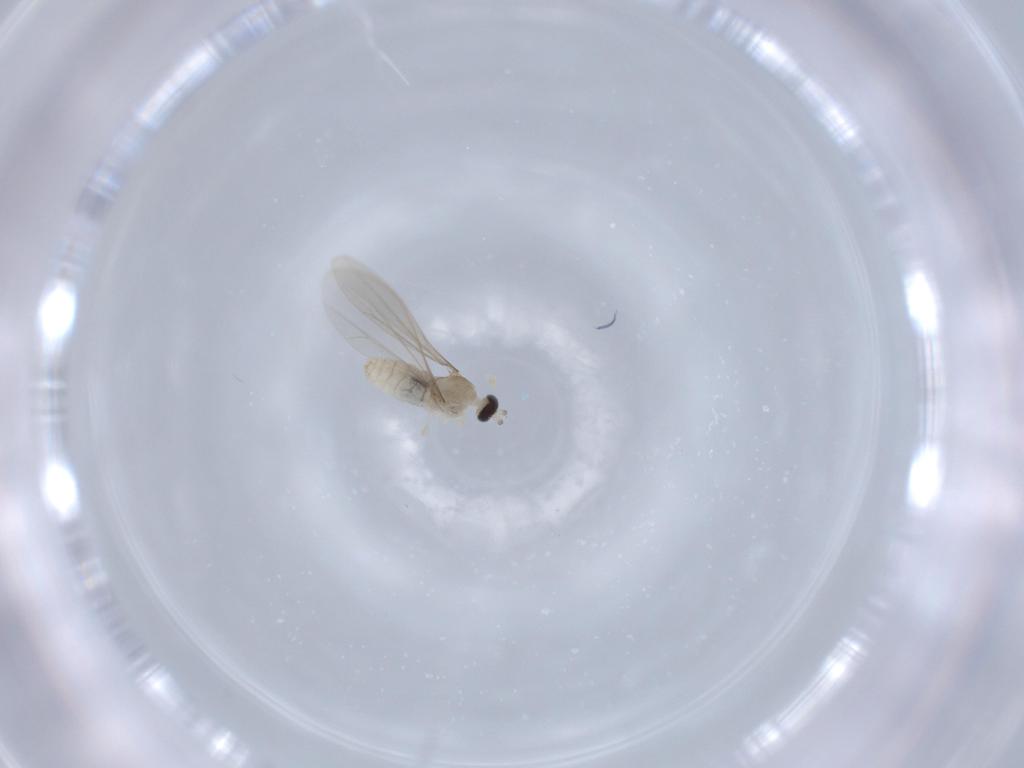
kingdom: Animalia
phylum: Arthropoda
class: Insecta
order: Diptera
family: Cecidomyiidae
